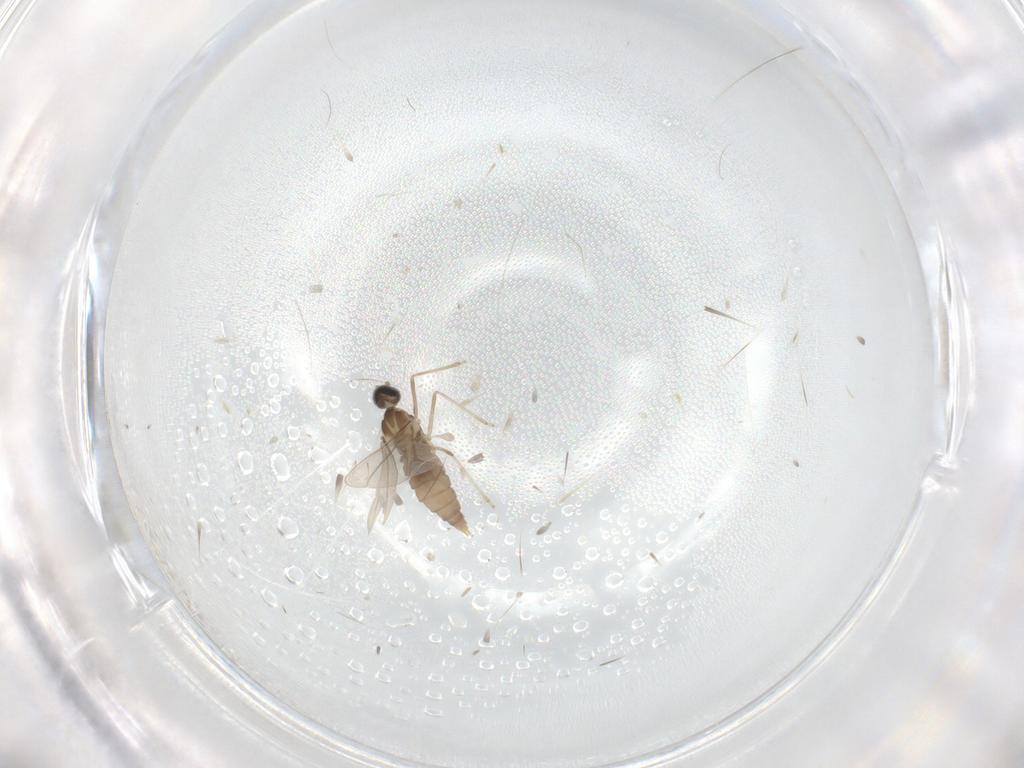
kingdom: Animalia
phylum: Arthropoda
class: Insecta
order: Diptera
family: Cecidomyiidae
